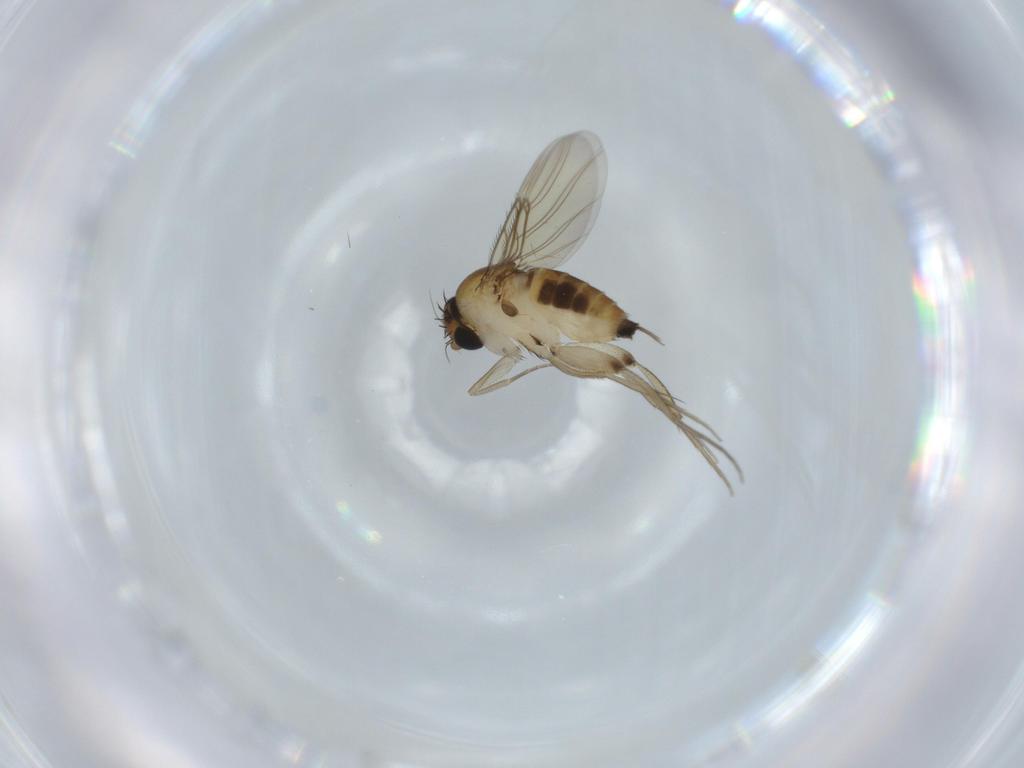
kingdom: Animalia
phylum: Arthropoda
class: Insecta
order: Diptera
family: Phoridae
